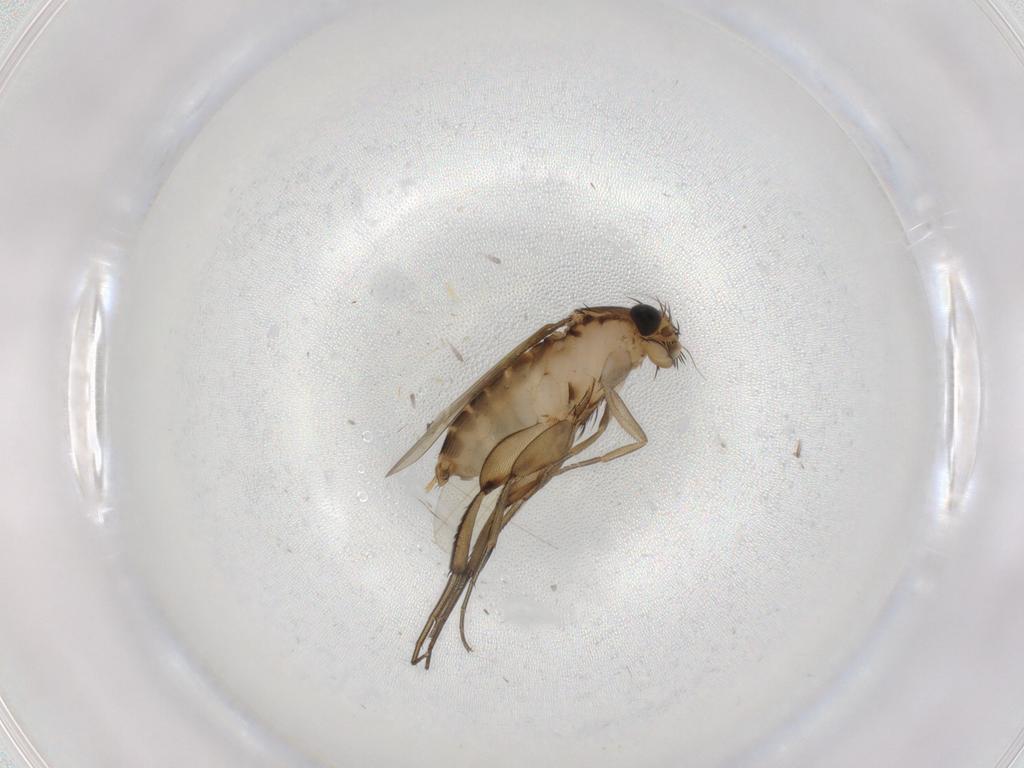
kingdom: Animalia
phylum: Arthropoda
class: Insecta
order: Diptera
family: Phoridae
